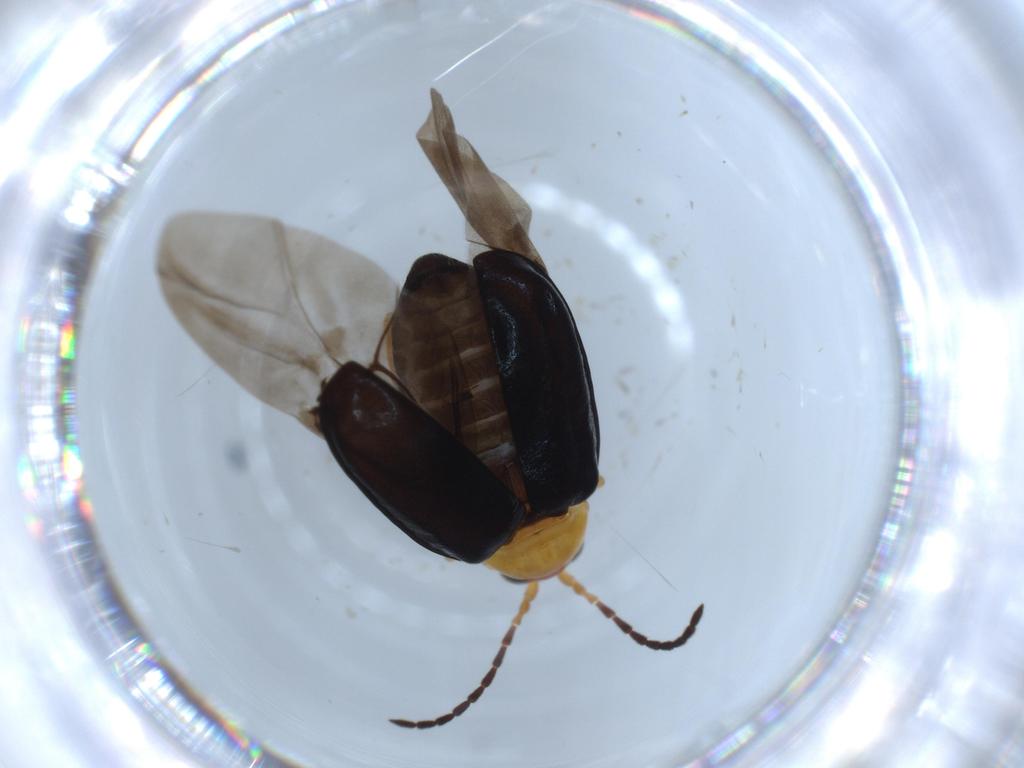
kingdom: Animalia
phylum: Arthropoda
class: Insecta
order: Coleoptera
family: Chrysomelidae
